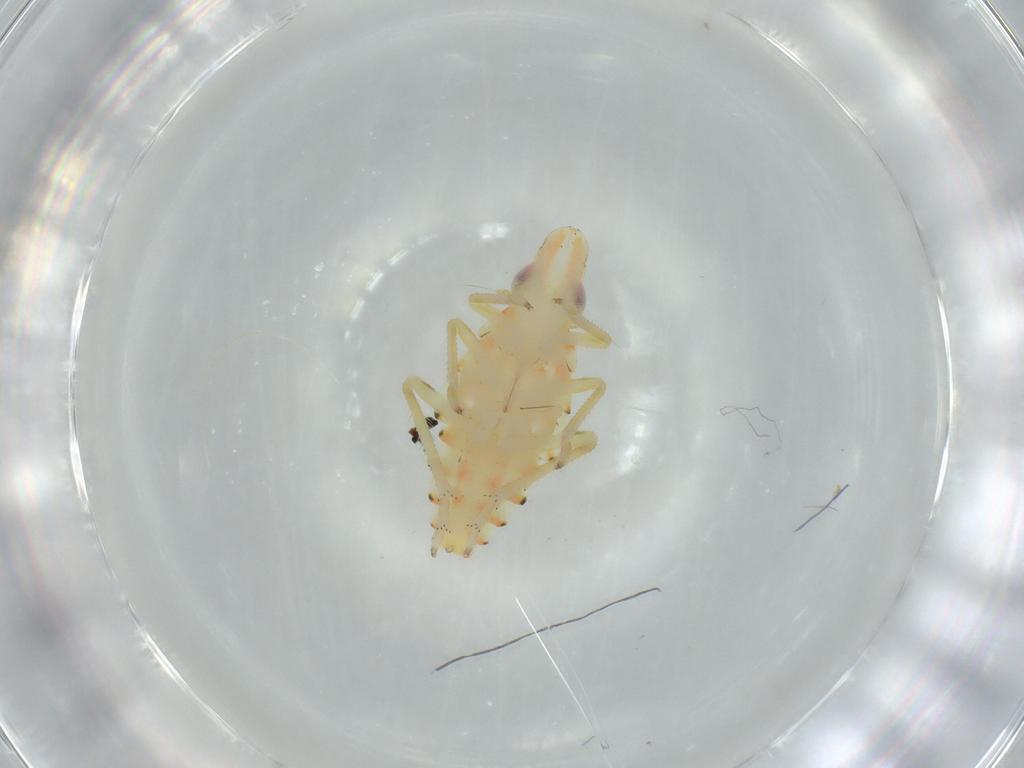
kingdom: Animalia
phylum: Arthropoda
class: Insecta
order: Hemiptera
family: Tropiduchidae
